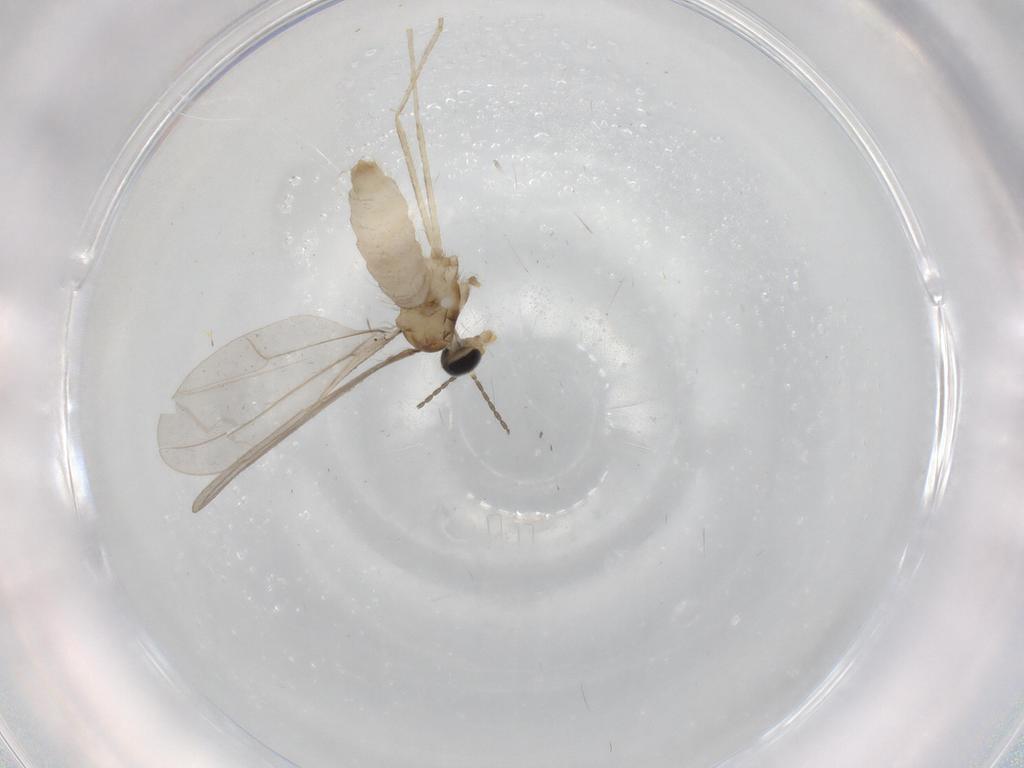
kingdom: Animalia
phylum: Arthropoda
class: Insecta
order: Diptera
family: Cecidomyiidae
